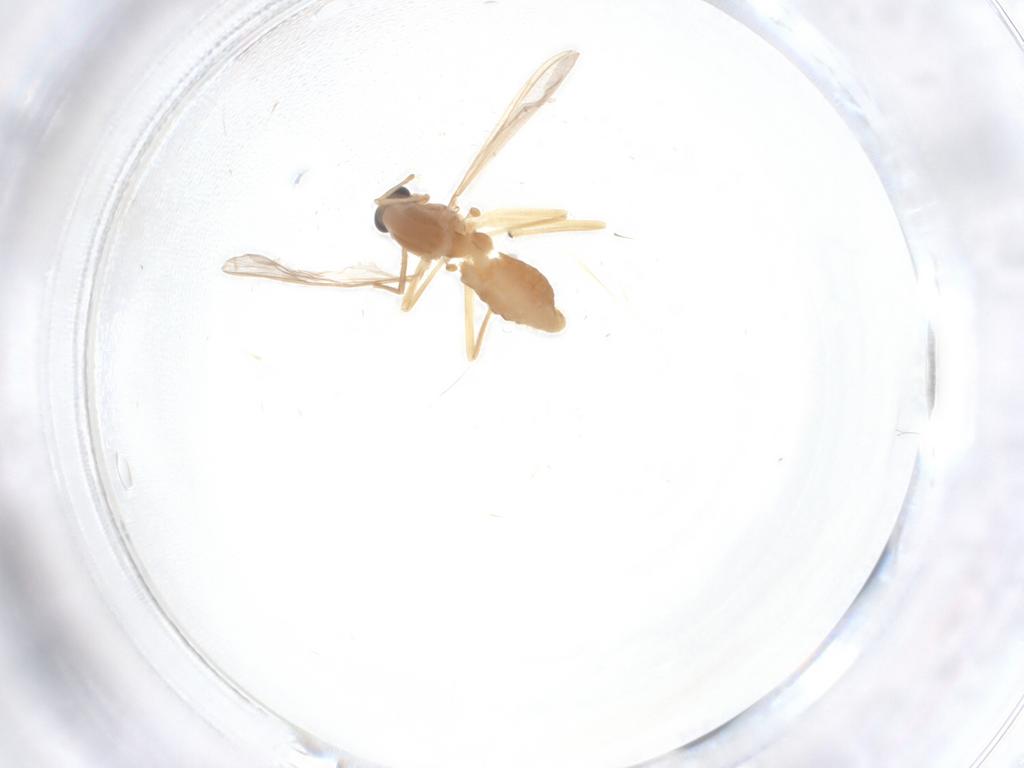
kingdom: Animalia
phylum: Arthropoda
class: Insecta
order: Diptera
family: Chironomidae
